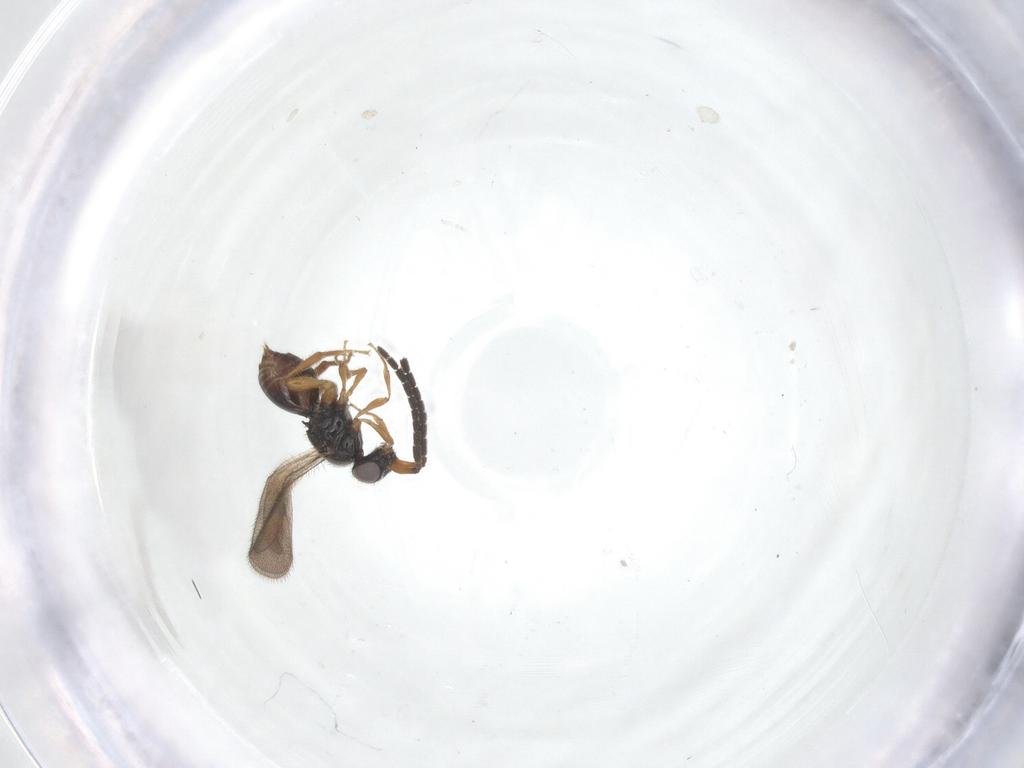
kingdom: Animalia
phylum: Arthropoda
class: Insecta
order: Hymenoptera
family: Ceraphronidae
